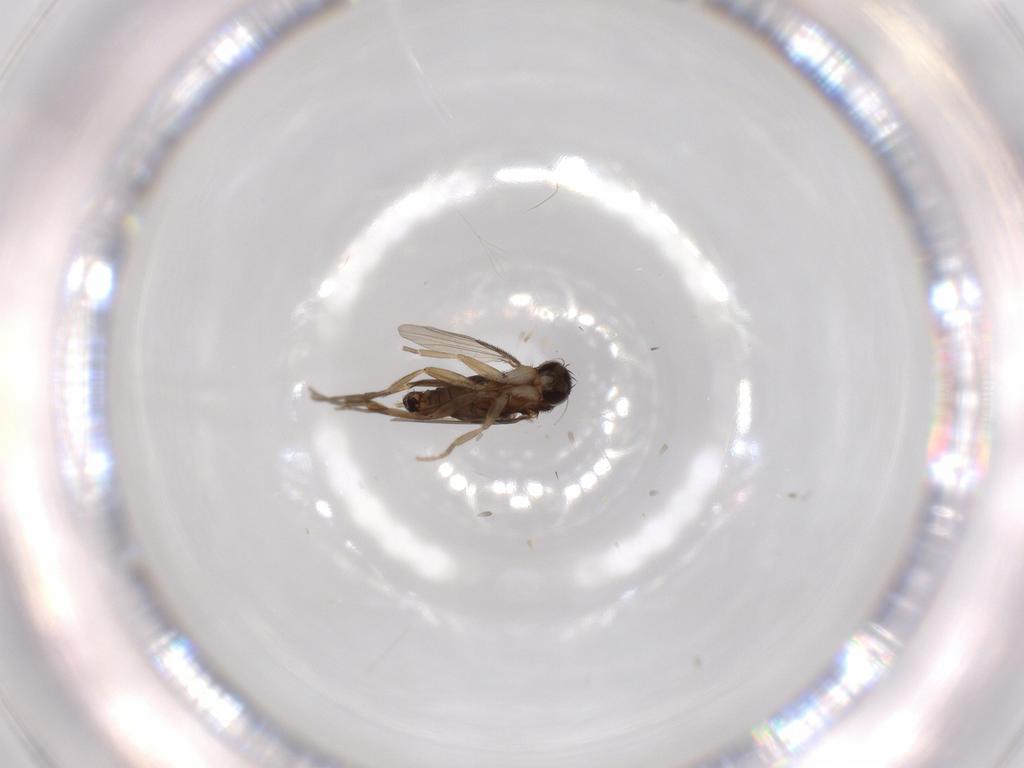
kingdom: Animalia
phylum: Arthropoda
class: Insecta
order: Diptera
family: Phoridae
